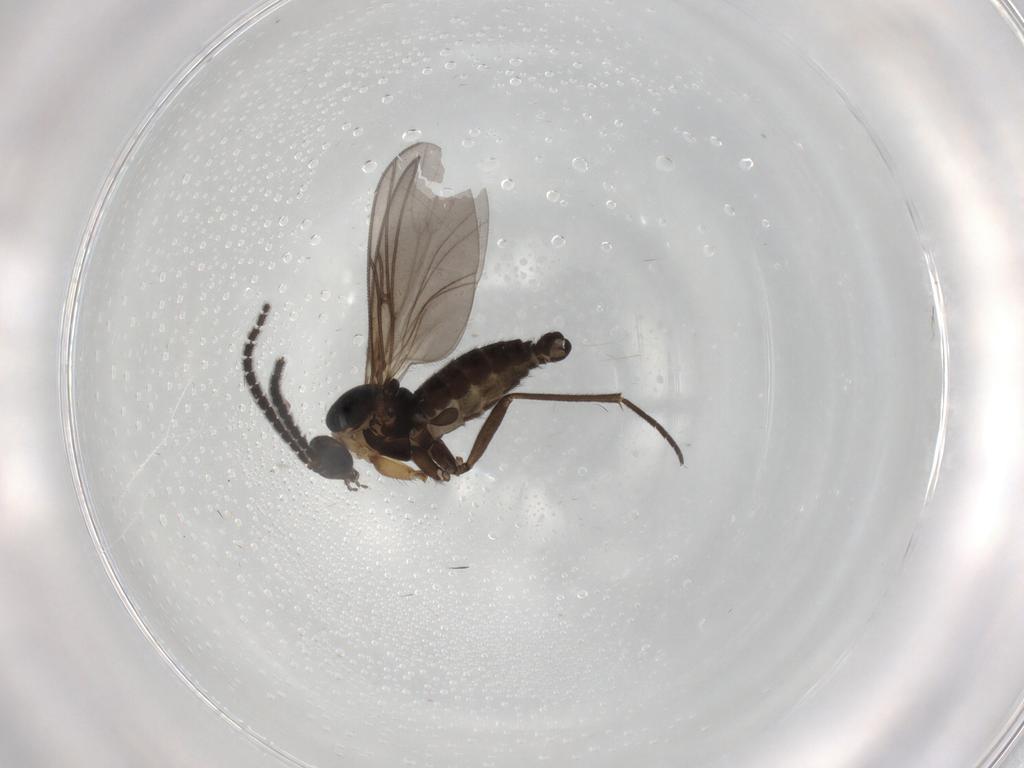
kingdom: Animalia
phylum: Arthropoda
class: Insecta
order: Diptera
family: Sciaridae
